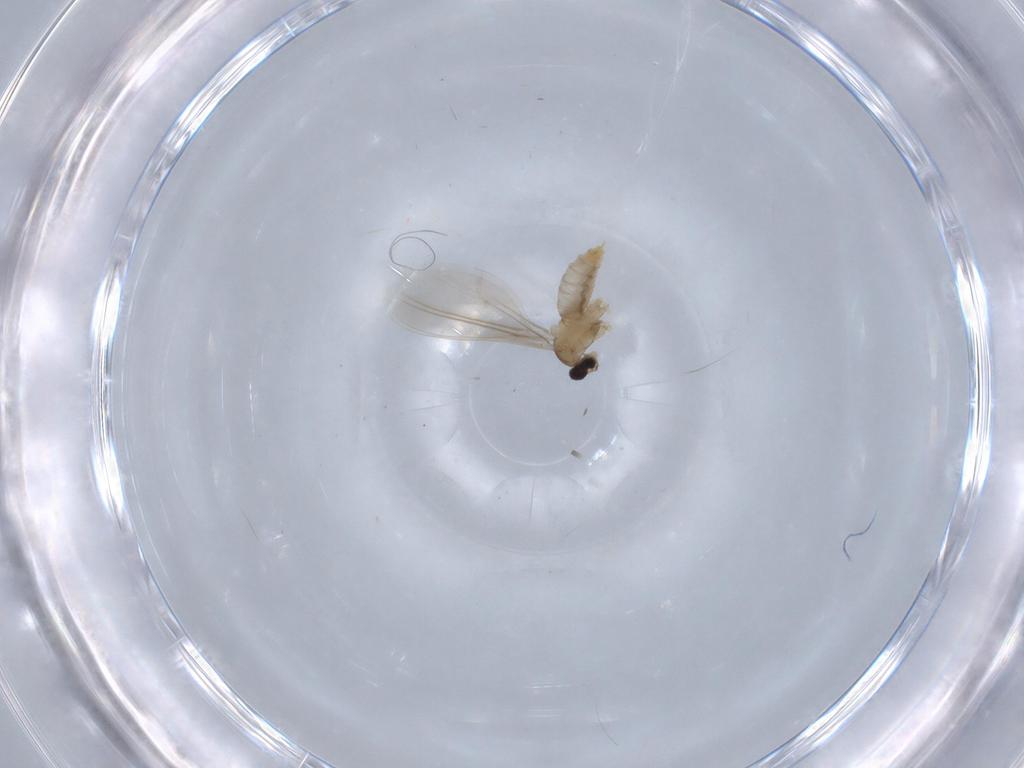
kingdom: Animalia
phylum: Arthropoda
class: Insecta
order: Diptera
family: Cecidomyiidae
